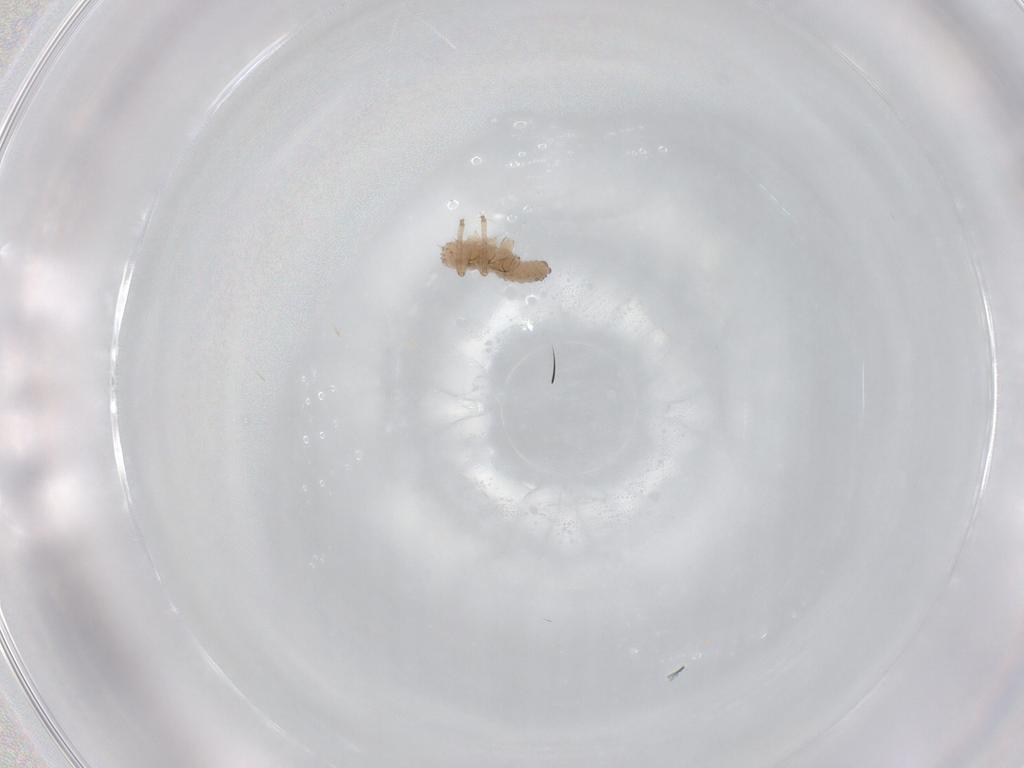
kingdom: Animalia
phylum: Arthropoda
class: Insecta
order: Hemiptera
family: Aphididae
